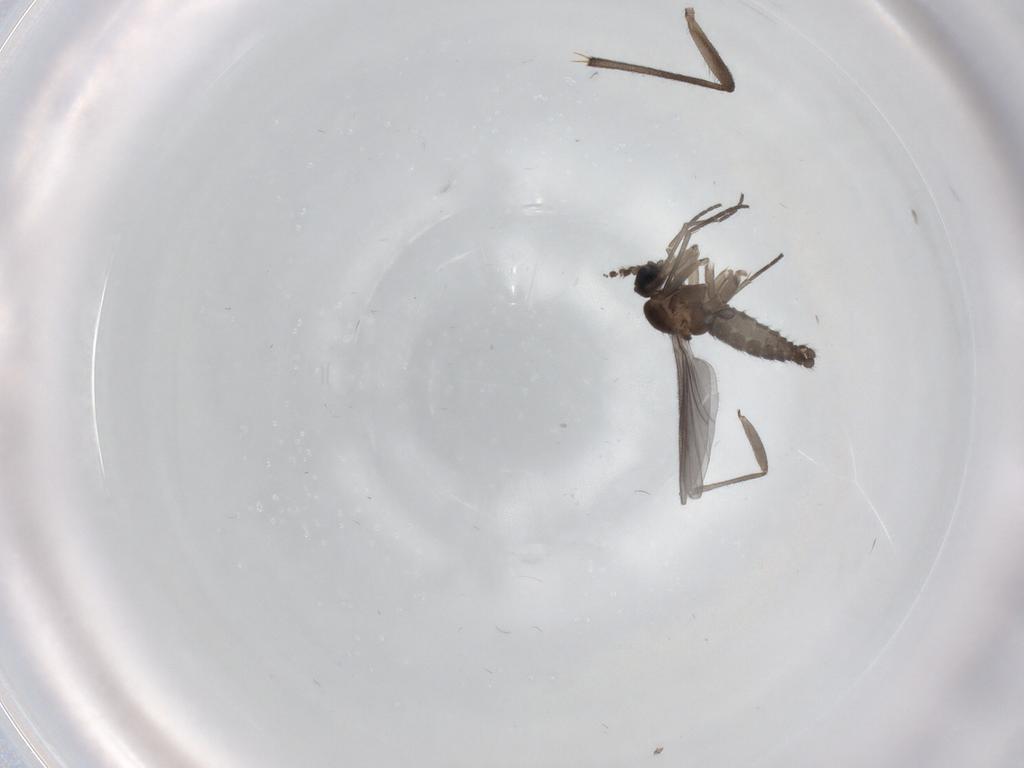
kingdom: Animalia
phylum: Arthropoda
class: Insecta
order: Diptera
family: Sciaridae
